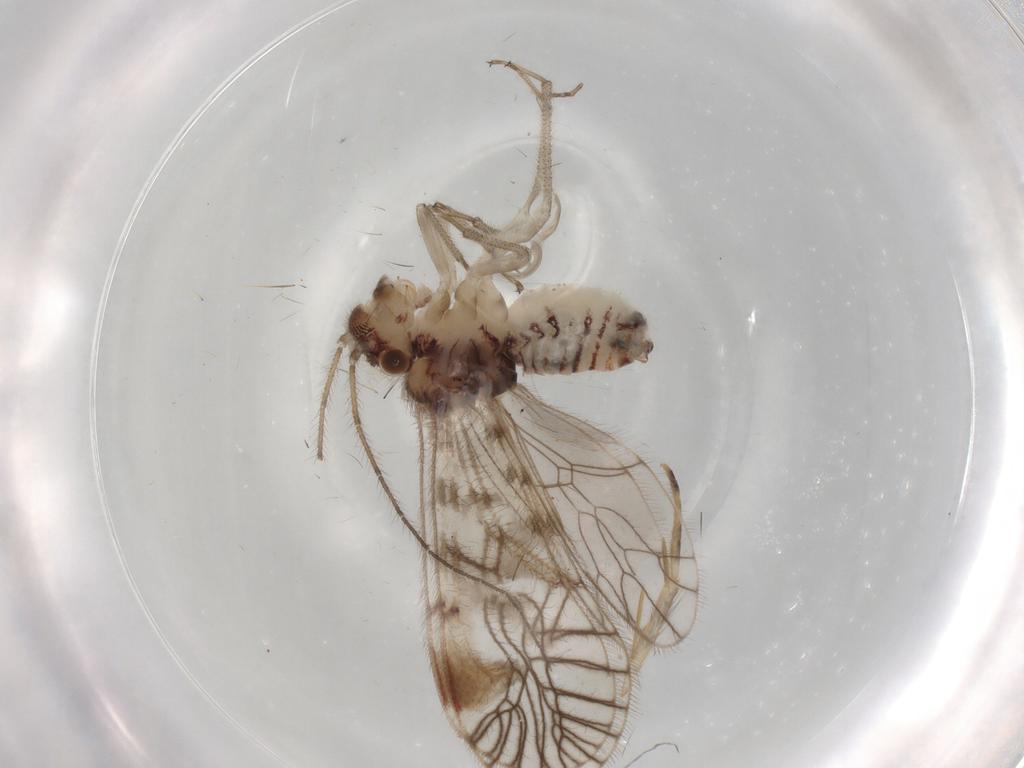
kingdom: Animalia
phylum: Arthropoda
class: Insecta
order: Psocodea
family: Amphipsocidae
